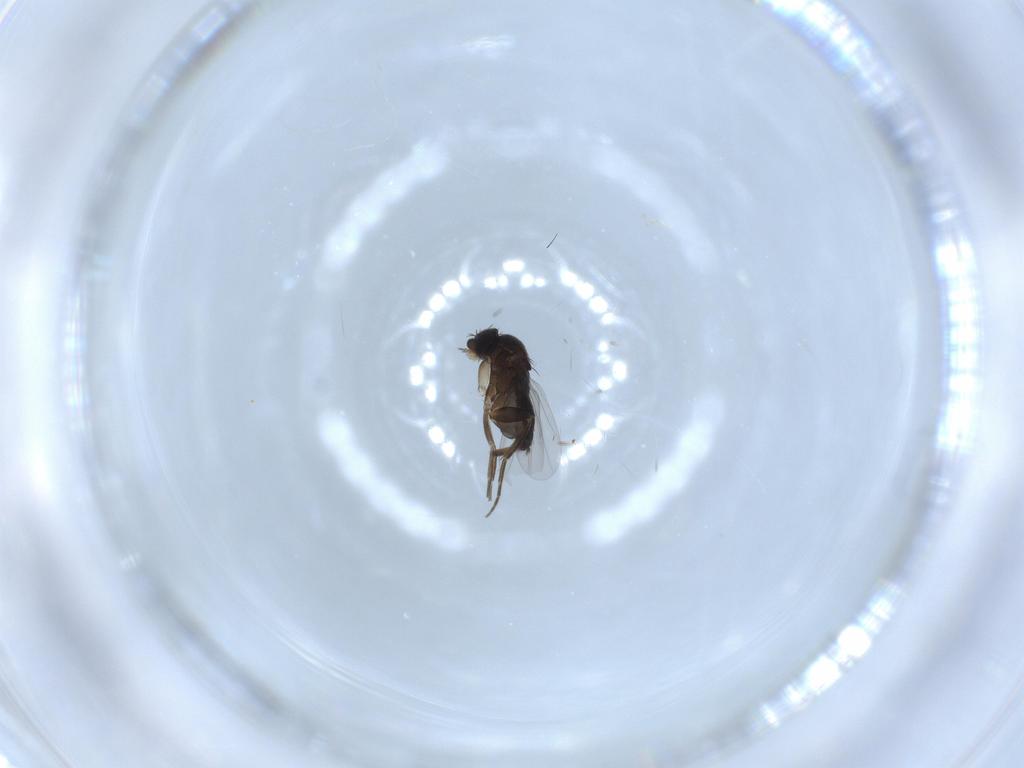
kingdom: Animalia
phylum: Arthropoda
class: Insecta
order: Diptera
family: Phoridae
